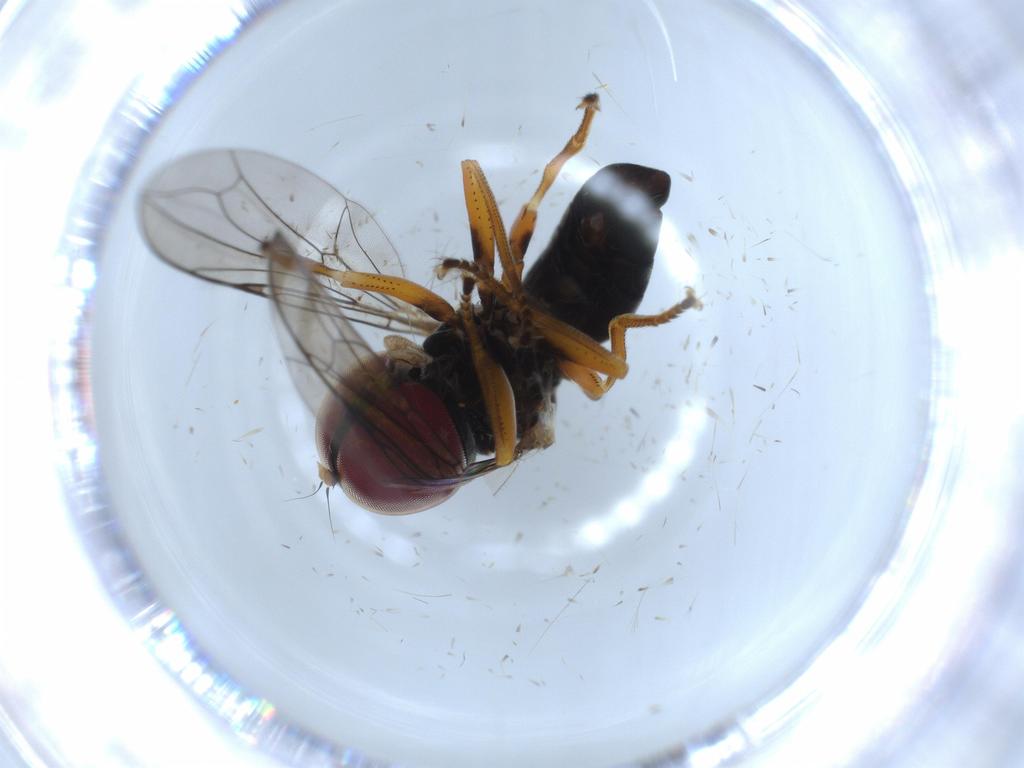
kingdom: Animalia
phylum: Arthropoda
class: Insecta
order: Diptera
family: Pipunculidae
